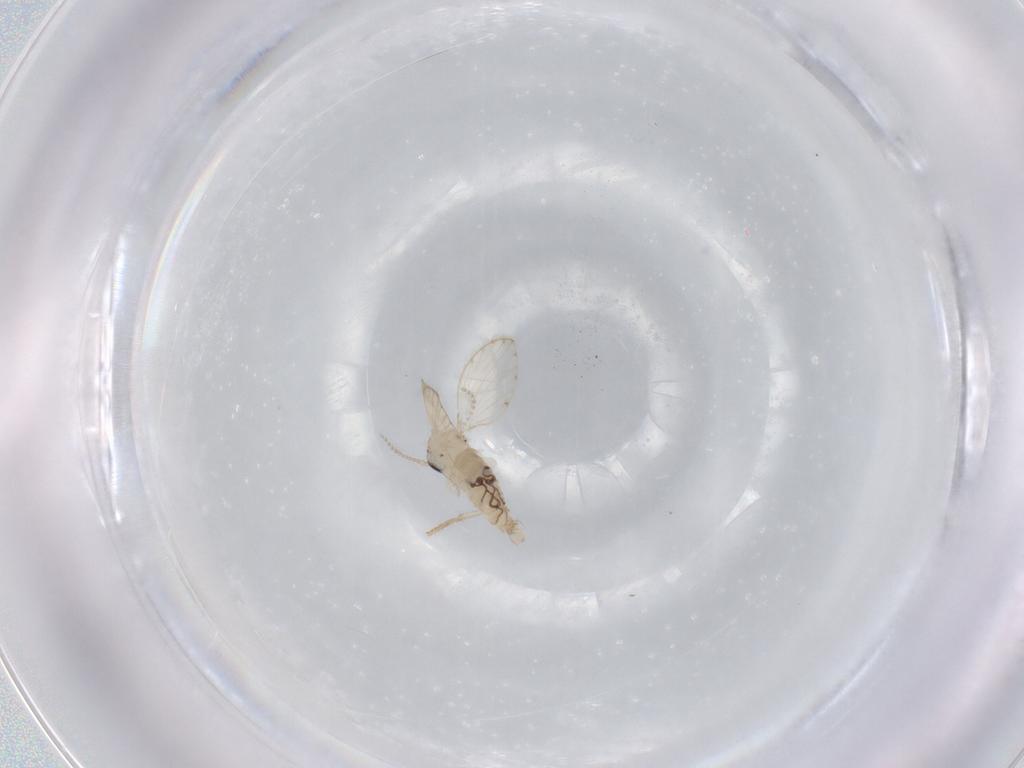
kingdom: Animalia
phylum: Arthropoda
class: Insecta
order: Diptera
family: Psychodidae
